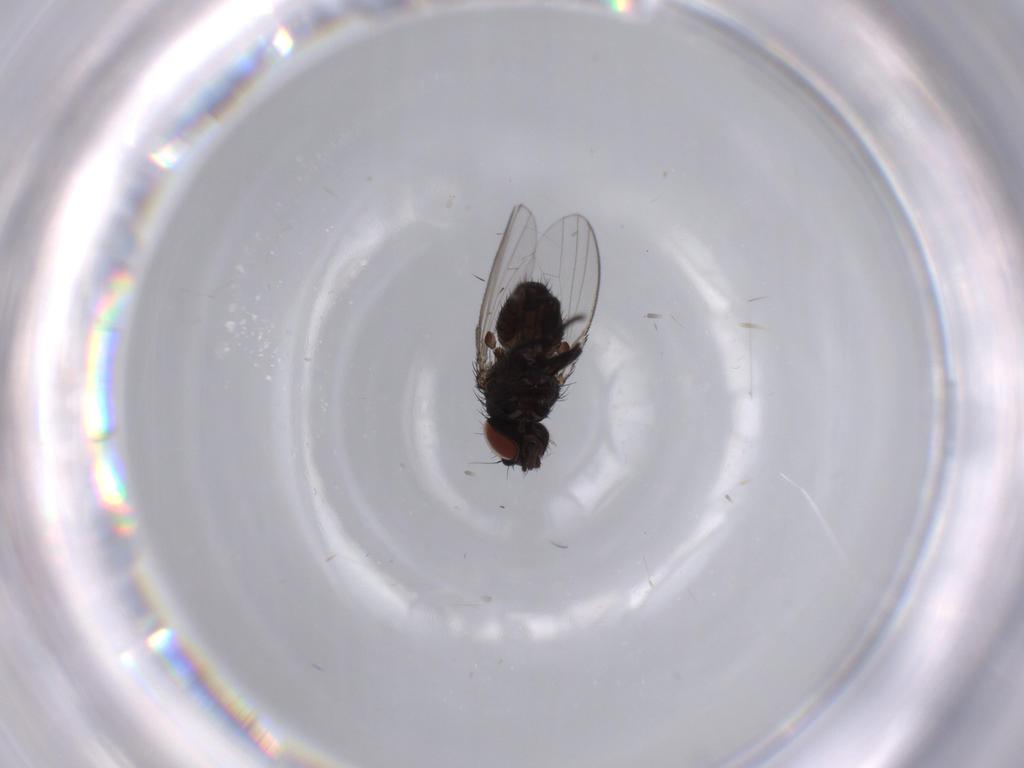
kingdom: Animalia
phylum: Arthropoda
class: Insecta
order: Diptera
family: Milichiidae
